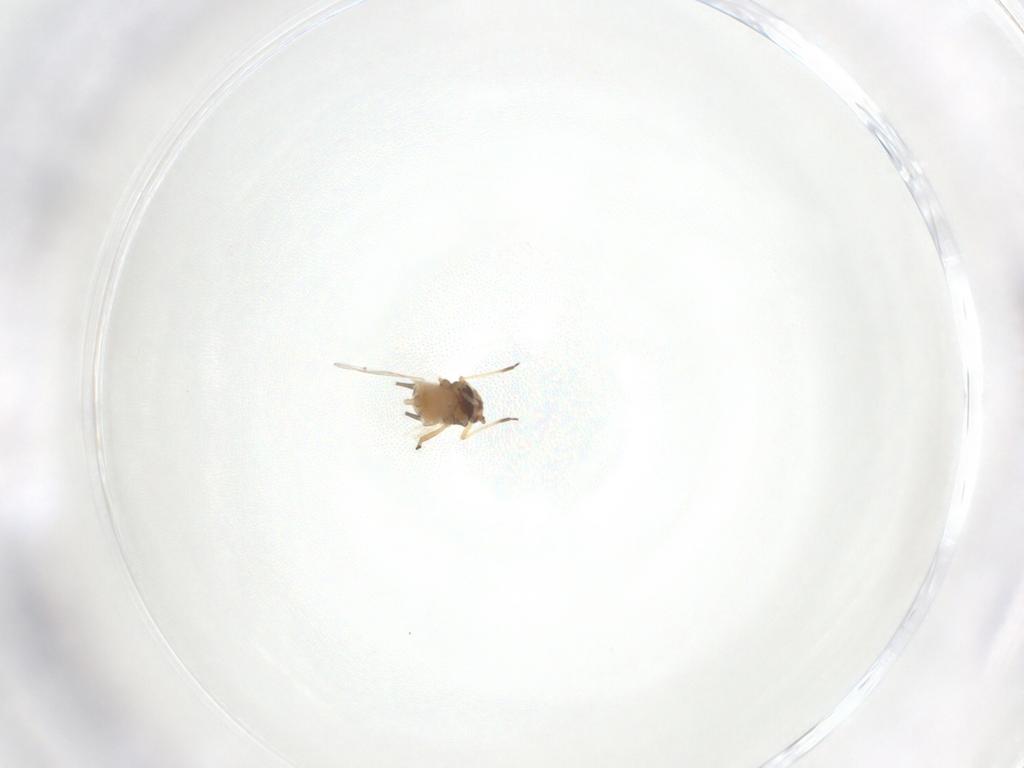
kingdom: Animalia
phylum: Arthropoda
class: Insecta
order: Hemiptera
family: Aphididae
